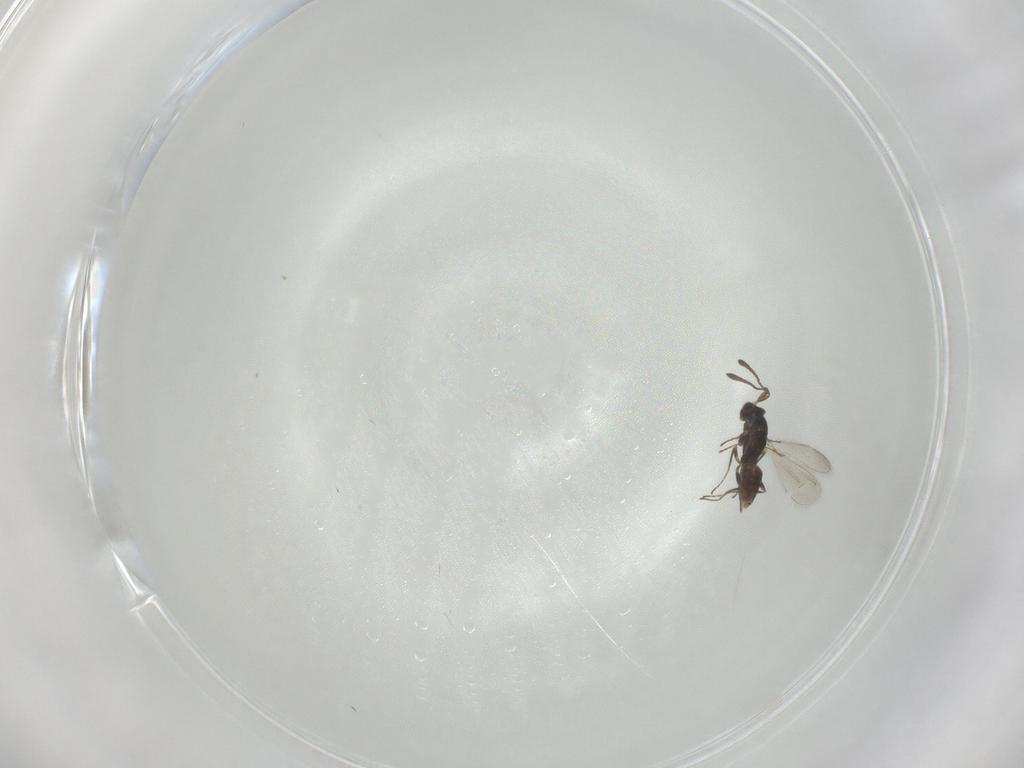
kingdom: Animalia
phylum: Arthropoda
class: Insecta
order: Hymenoptera
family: Mymaridae
